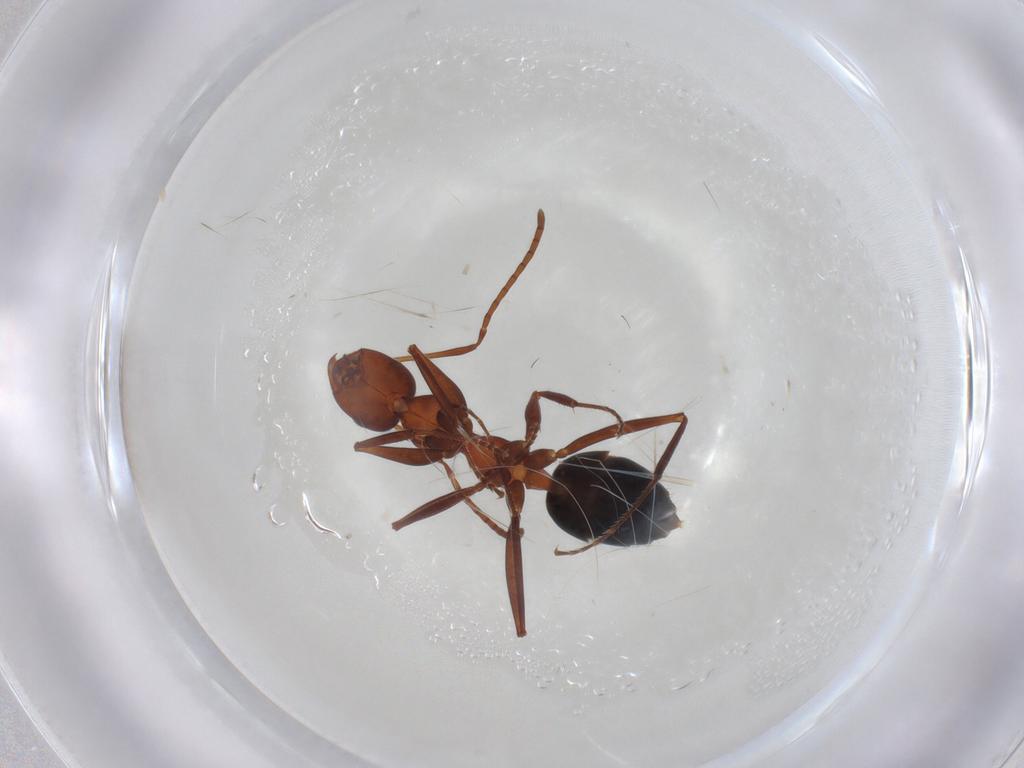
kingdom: Animalia
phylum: Arthropoda
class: Insecta
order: Hymenoptera
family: Formicidae
